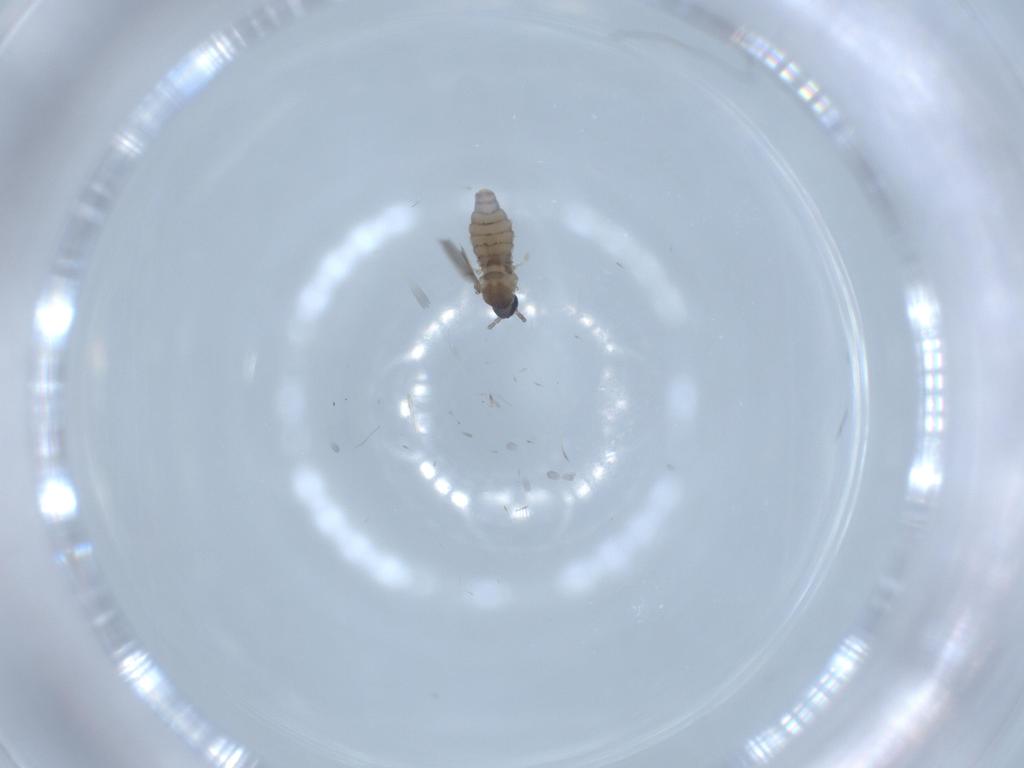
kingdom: Animalia
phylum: Arthropoda
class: Insecta
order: Diptera
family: Cecidomyiidae
